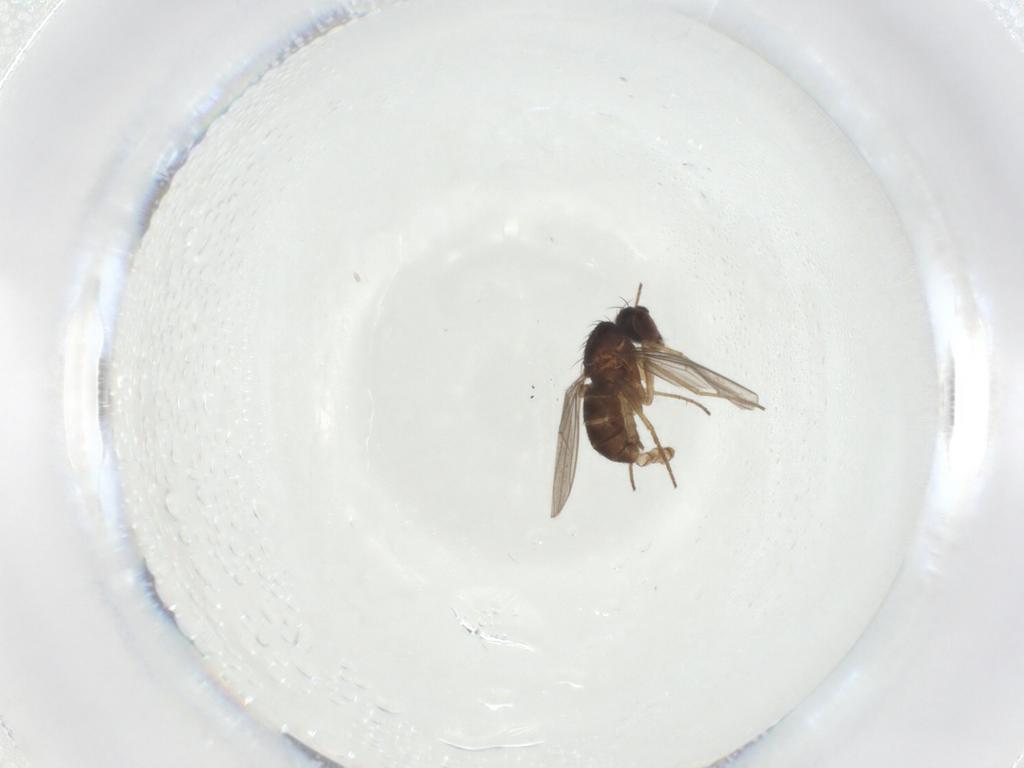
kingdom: Animalia
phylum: Arthropoda
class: Insecta
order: Diptera
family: Dolichopodidae
